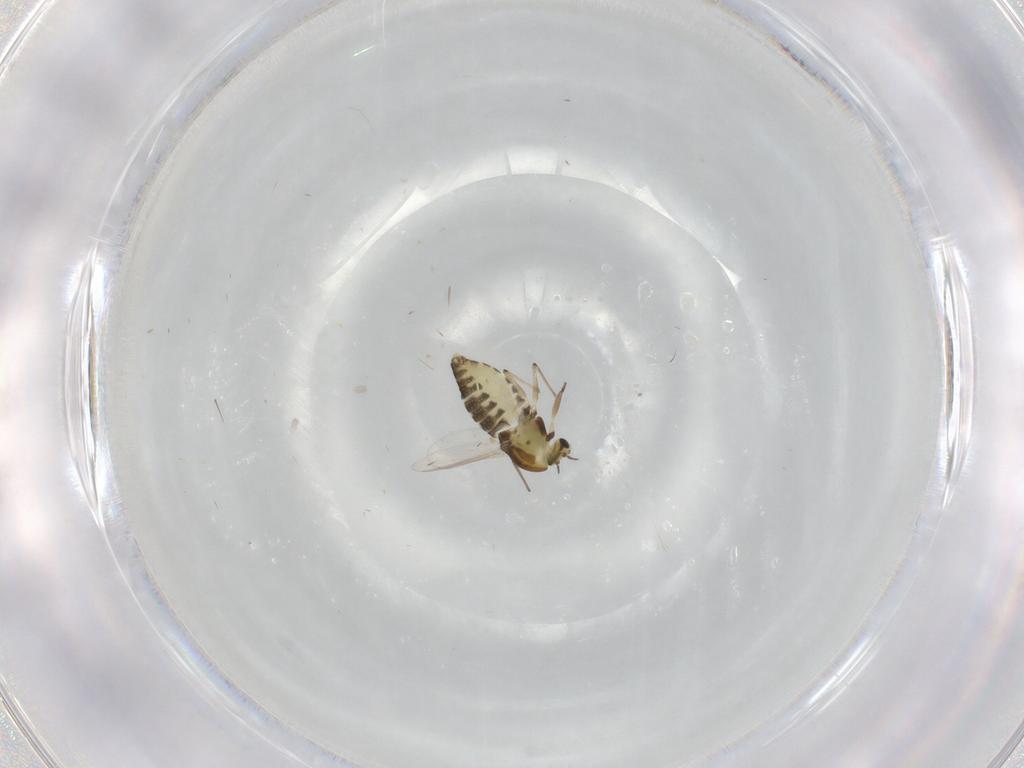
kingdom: Animalia
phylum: Arthropoda
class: Insecta
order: Diptera
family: Chironomidae
